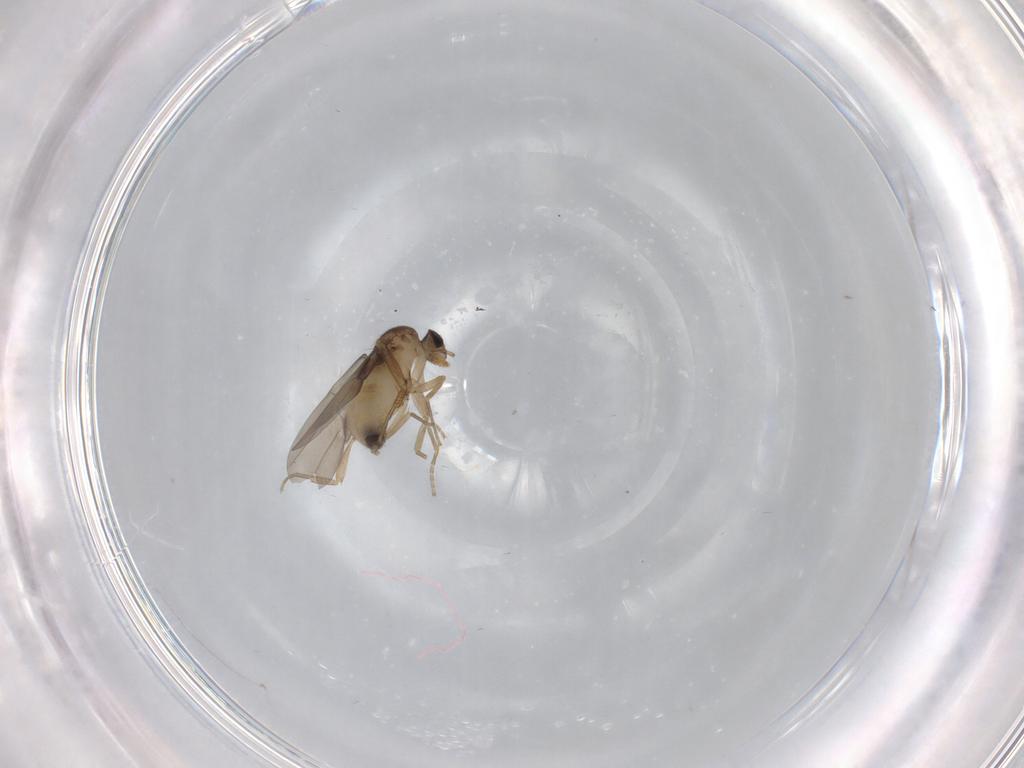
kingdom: Animalia
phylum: Arthropoda
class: Insecta
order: Diptera
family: Phoridae
